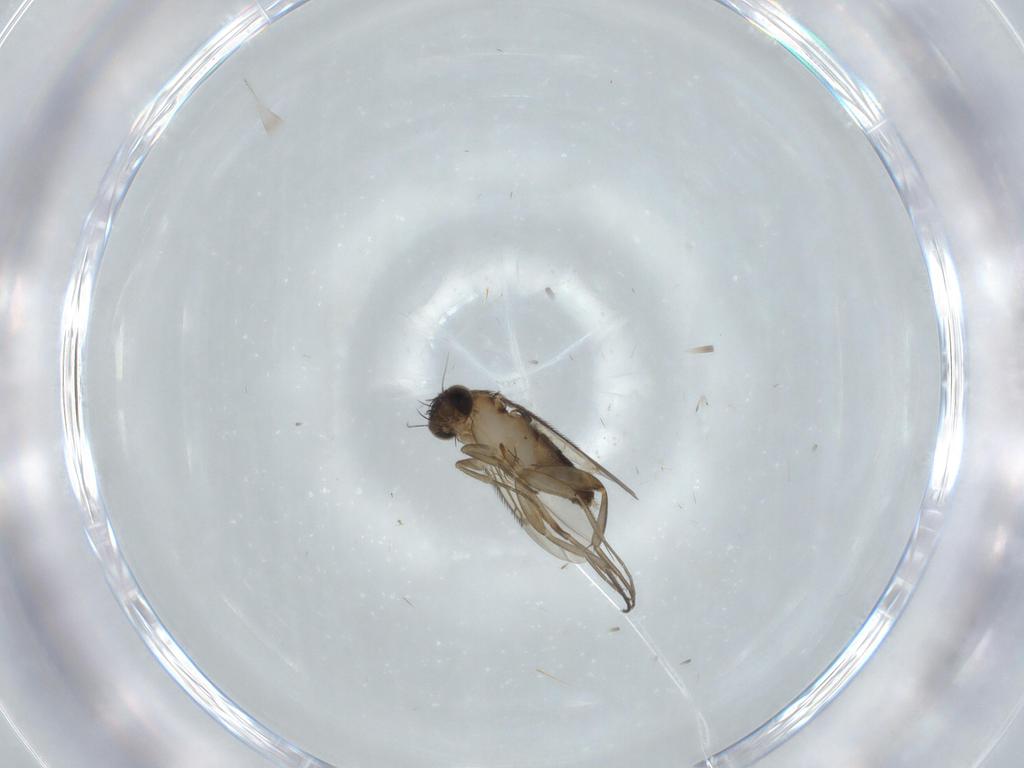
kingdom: Animalia
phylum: Arthropoda
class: Insecta
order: Diptera
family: Phoridae
